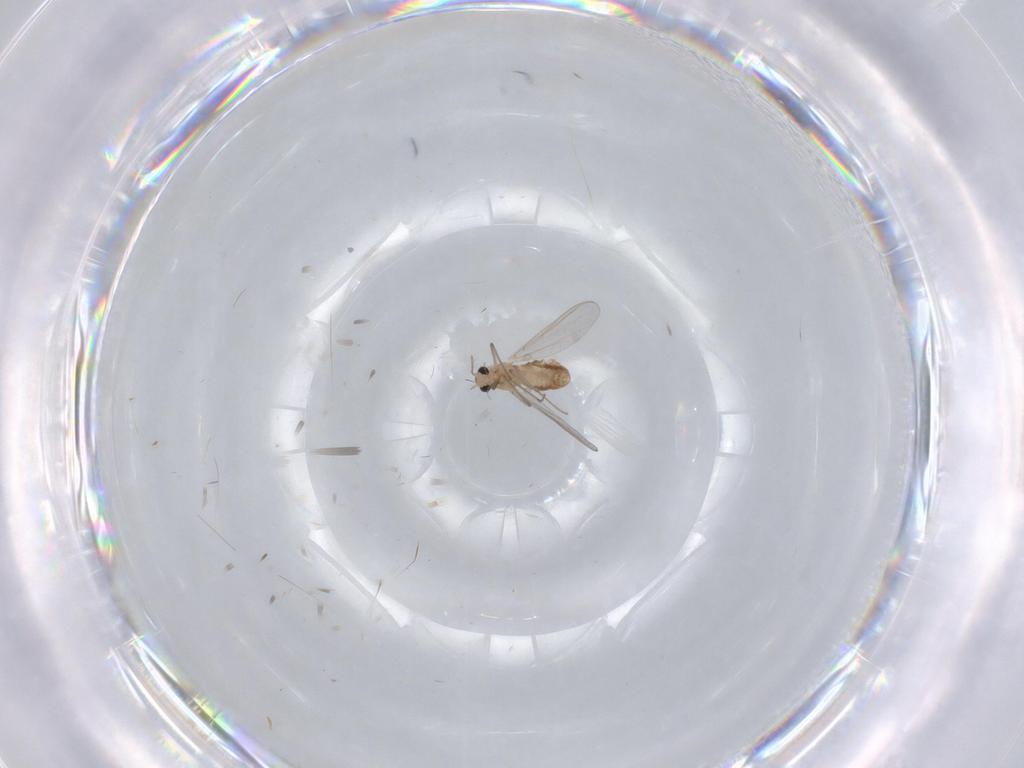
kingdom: Animalia
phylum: Arthropoda
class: Insecta
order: Diptera
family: Chironomidae
